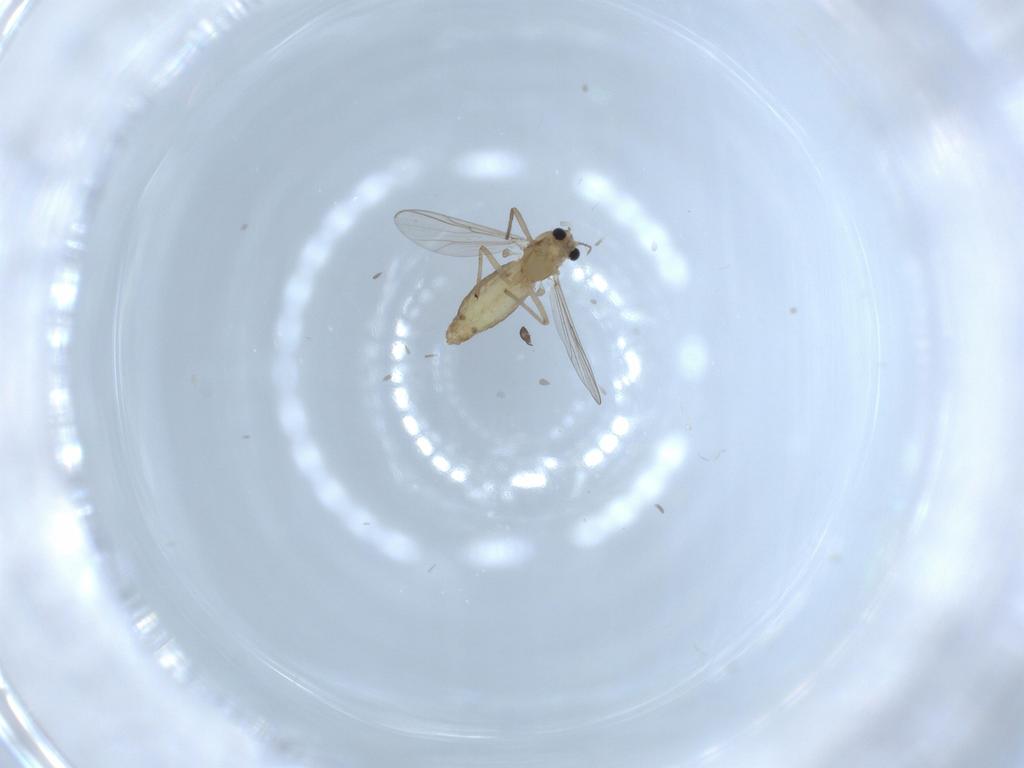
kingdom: Animalia
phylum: Arthropoda
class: Insecta
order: Diptera
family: Chironomidae
